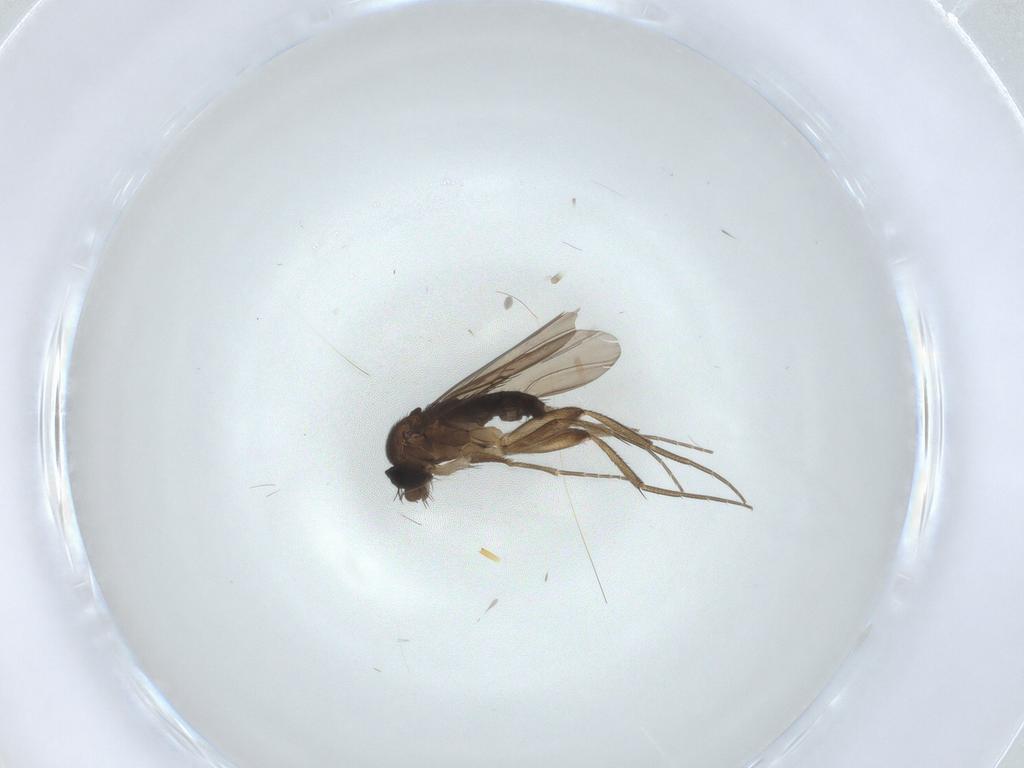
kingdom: Animalia
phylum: Arthropoda
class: Insecta
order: Diptera
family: Phoridae
